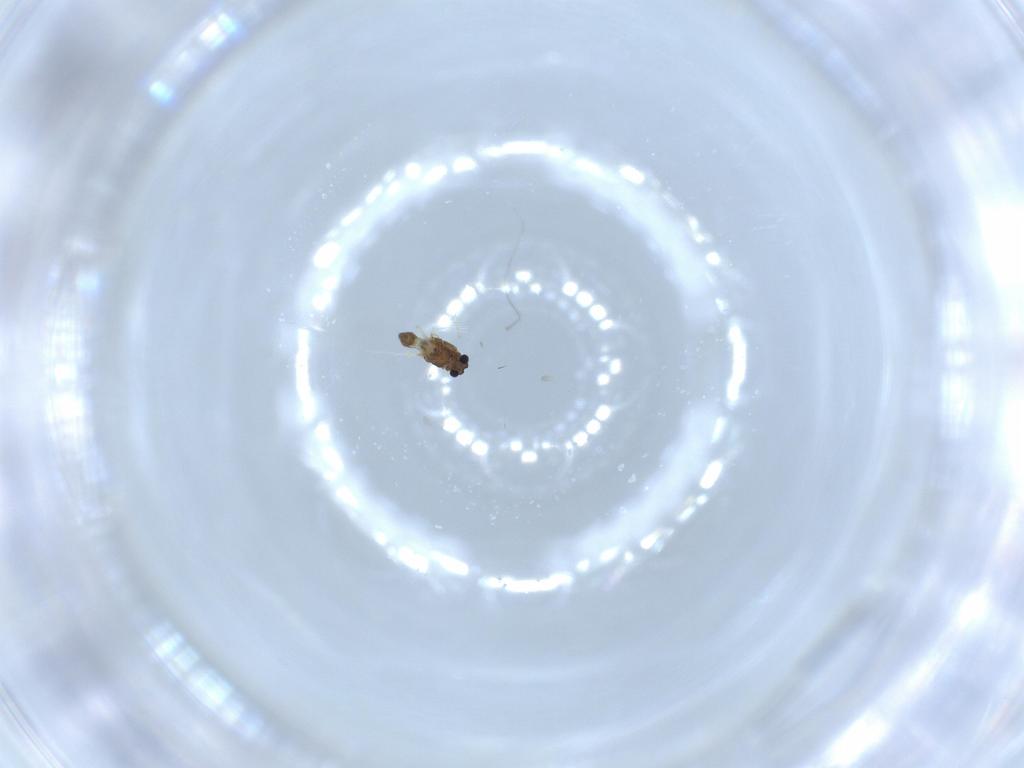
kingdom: Animalia
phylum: Arthropoda
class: Insecta
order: Diptera
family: Chironomidae
